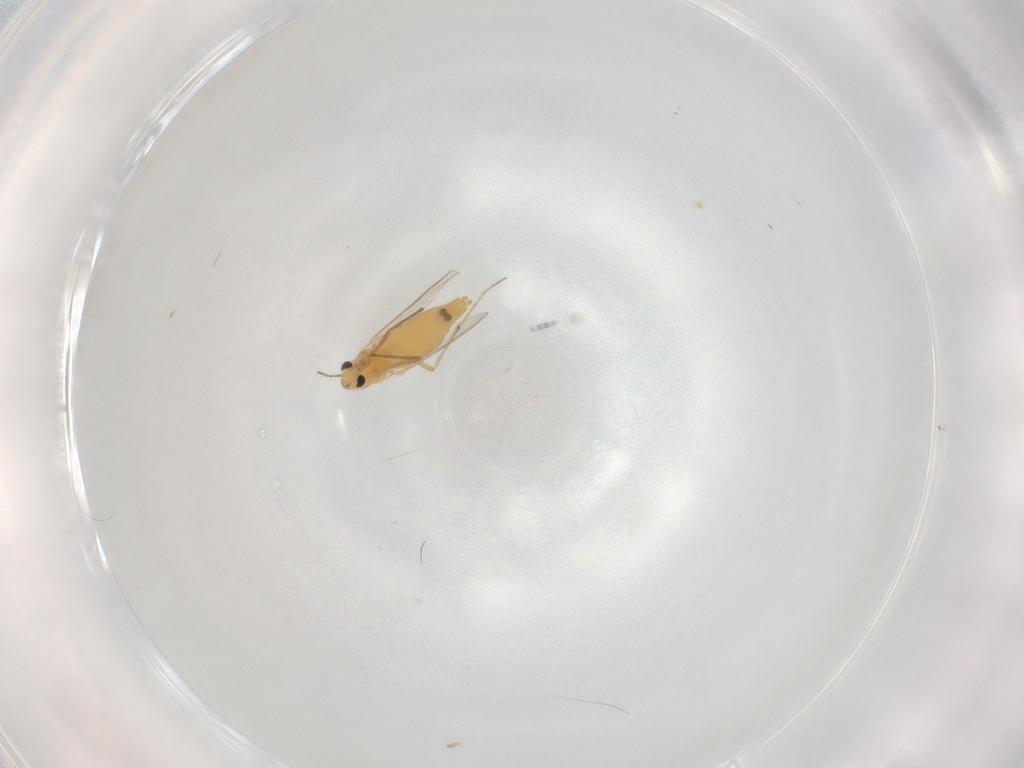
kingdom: Animalia
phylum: Arthropoda
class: Insecta
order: Diptera
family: Chironomidae
